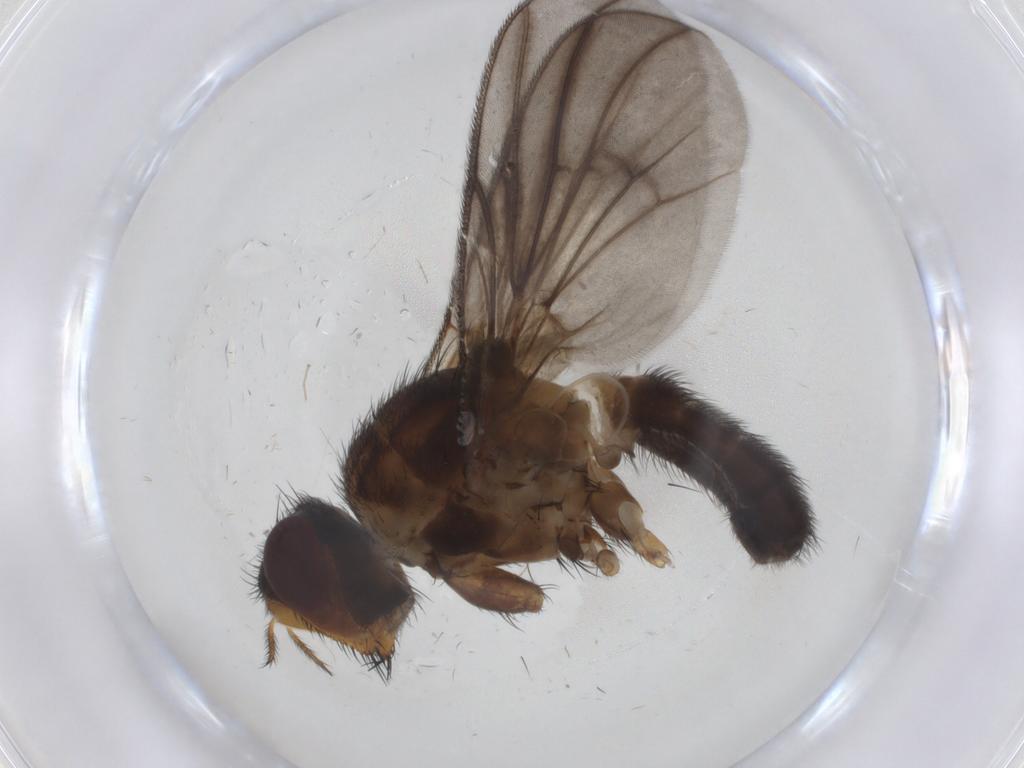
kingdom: Animalia
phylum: Arthropoda
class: Insecta
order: Diptera
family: Calliphoridae
